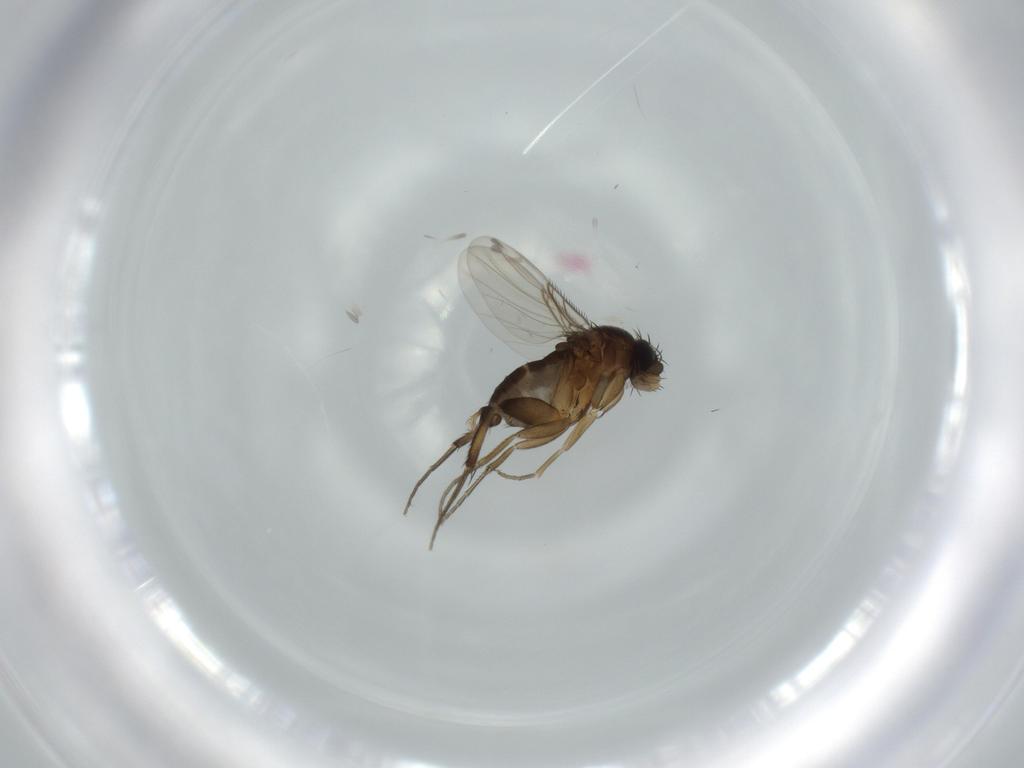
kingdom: Animalia
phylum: Arthropoda
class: Insecta
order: Diptera
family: Phoridae
